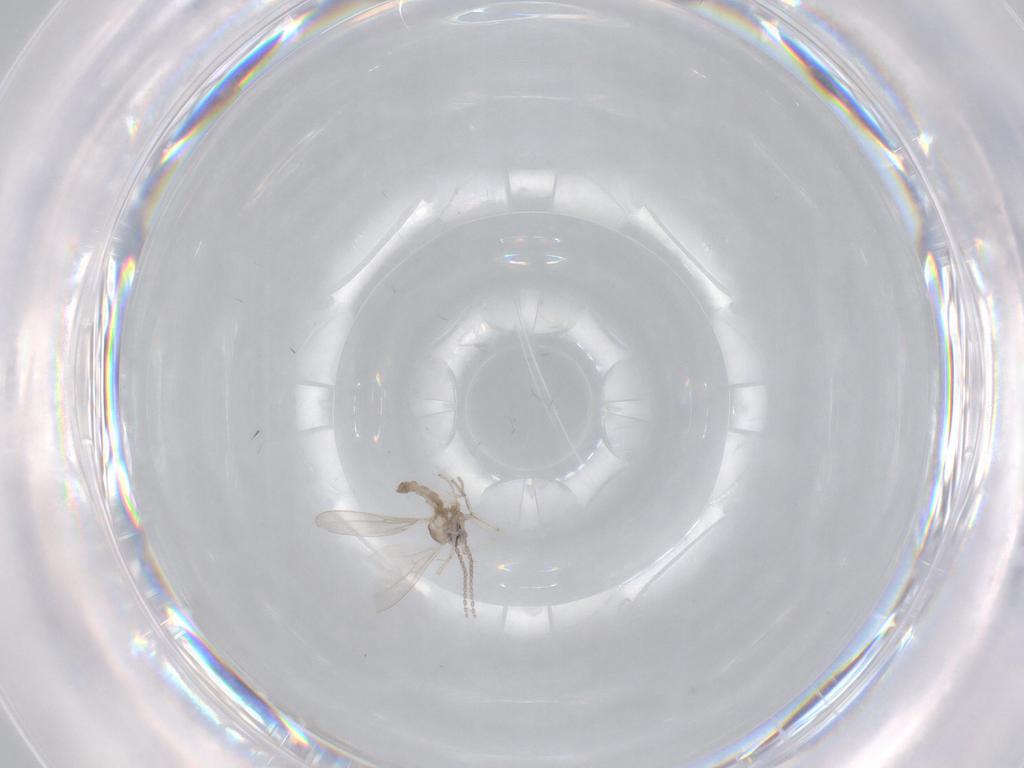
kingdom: Animalia
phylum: Arthropoda
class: Insecta
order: Diptera
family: Cecidomyiidae
